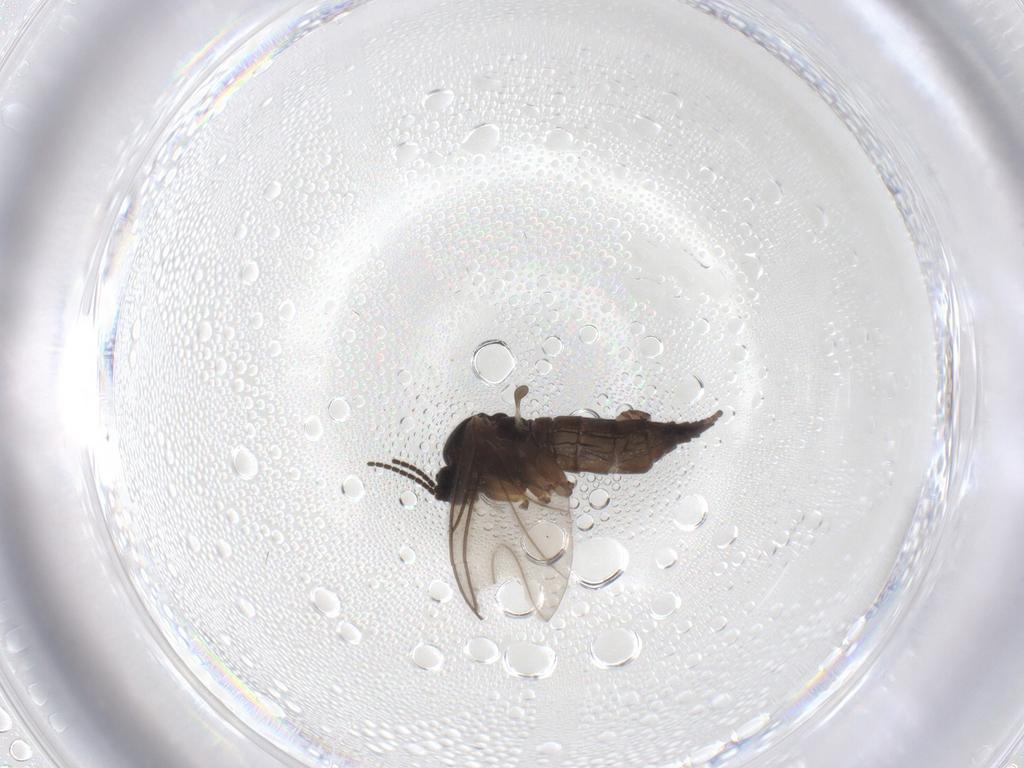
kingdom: Animalia
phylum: Arthropoda
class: Insecta
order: Diptera
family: Sciaridae
